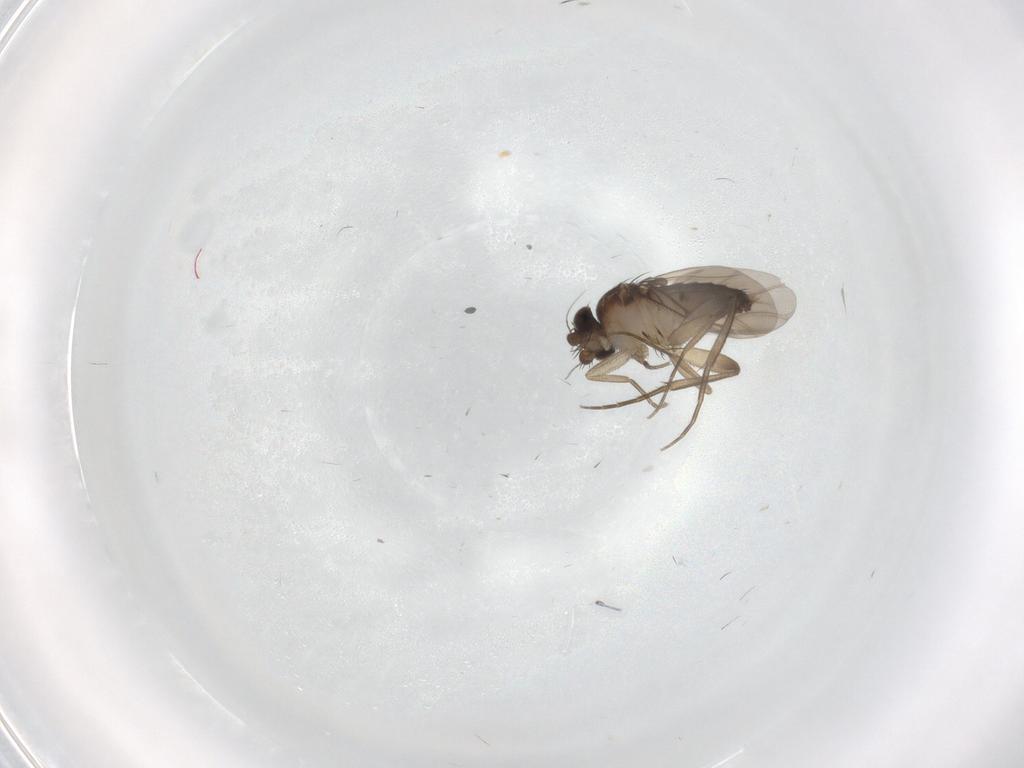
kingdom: Animalia
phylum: Arthropoda
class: Insecta
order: Diptera
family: Phoridae
